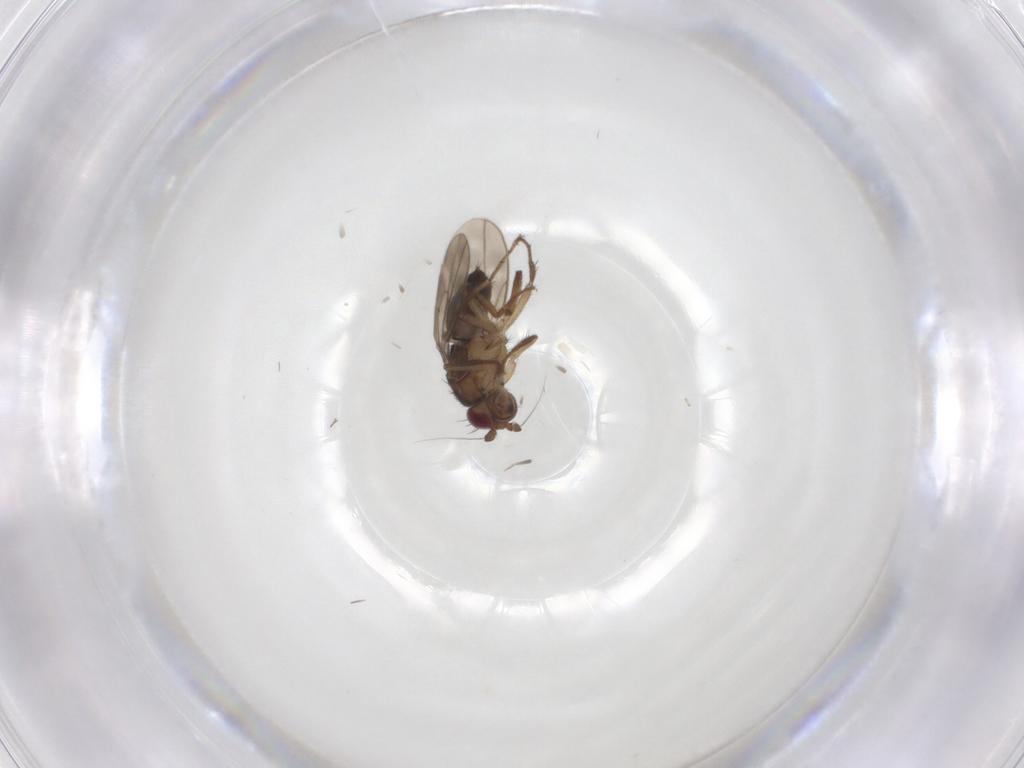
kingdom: Animalia
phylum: Arthropoda
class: Insecta
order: Diptera
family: Sphaeroceridae
